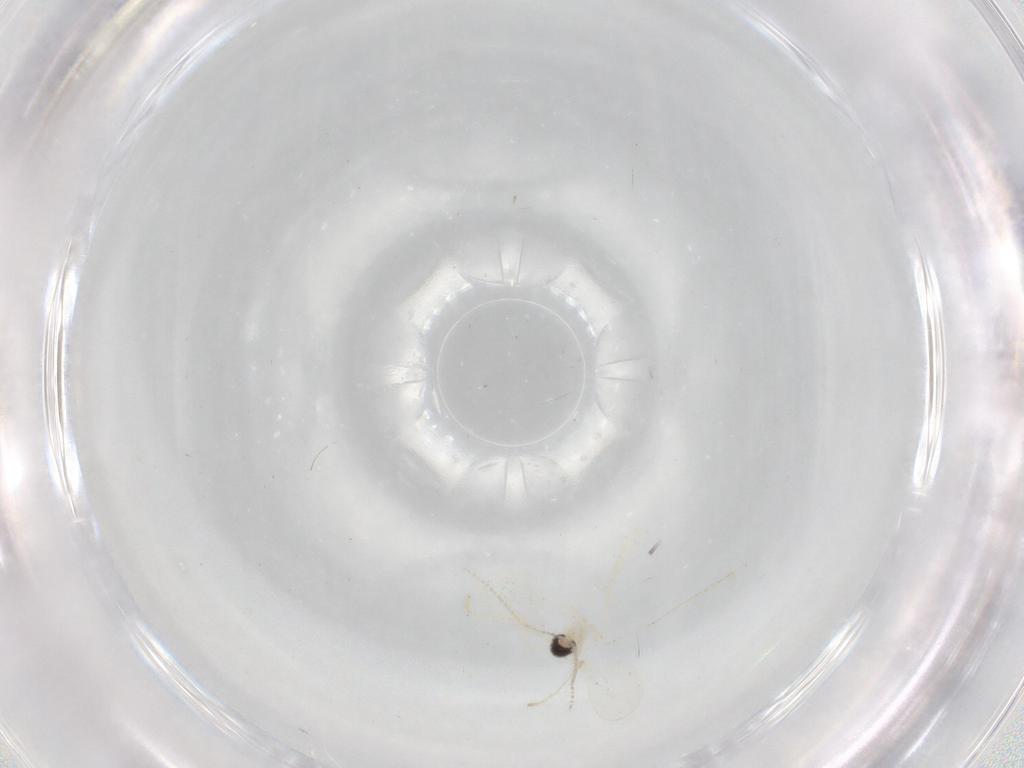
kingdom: Animalia
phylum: Arthropoda
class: Insecta
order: Diptera
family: Cecidomyiidae
